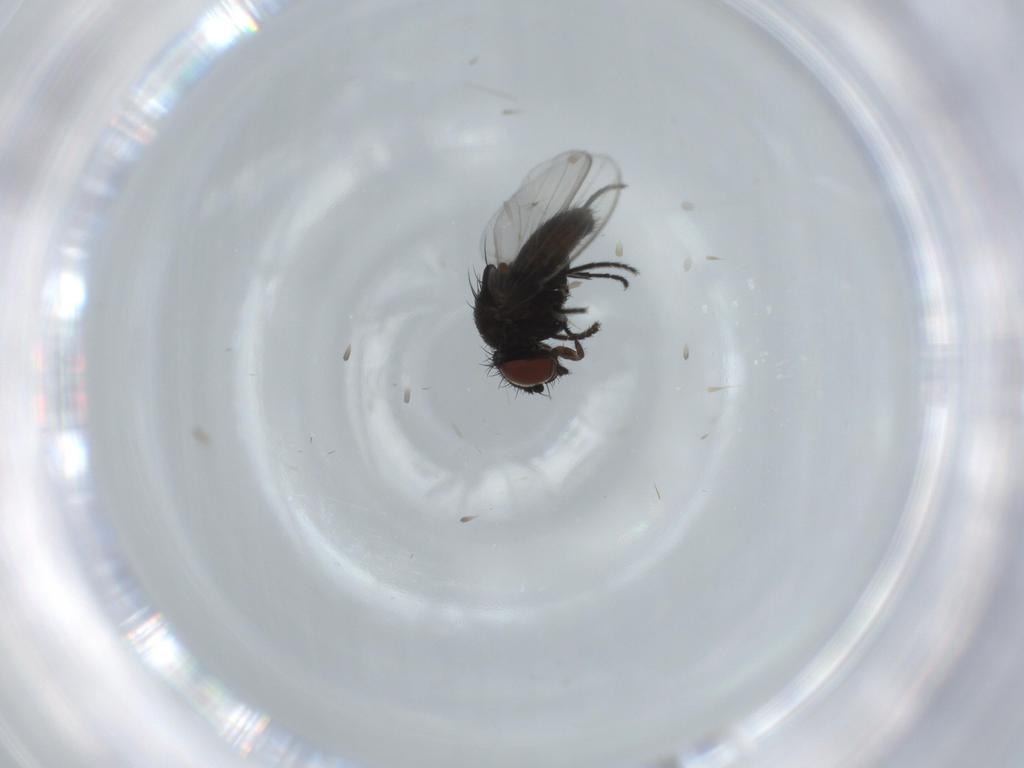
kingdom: Animalia
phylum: Arthropoda
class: Insecta
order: Diptera
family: Milichiidae
